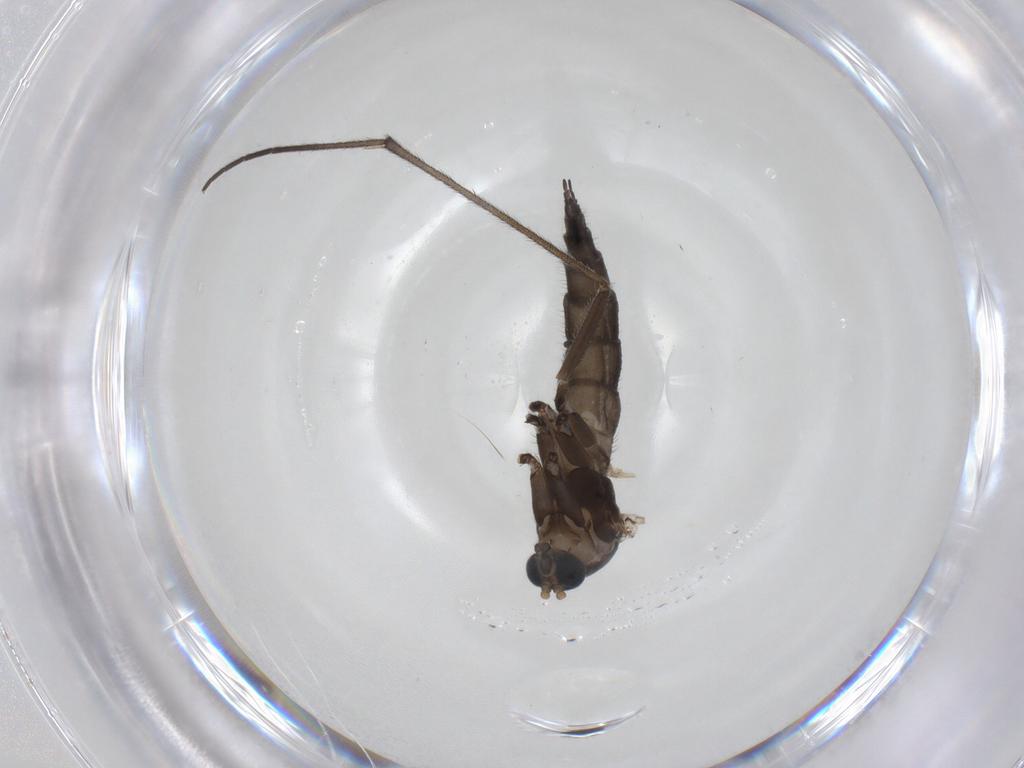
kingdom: Animalia
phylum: Arthropoda
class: Insecta
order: Diptera
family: Sciaridae
